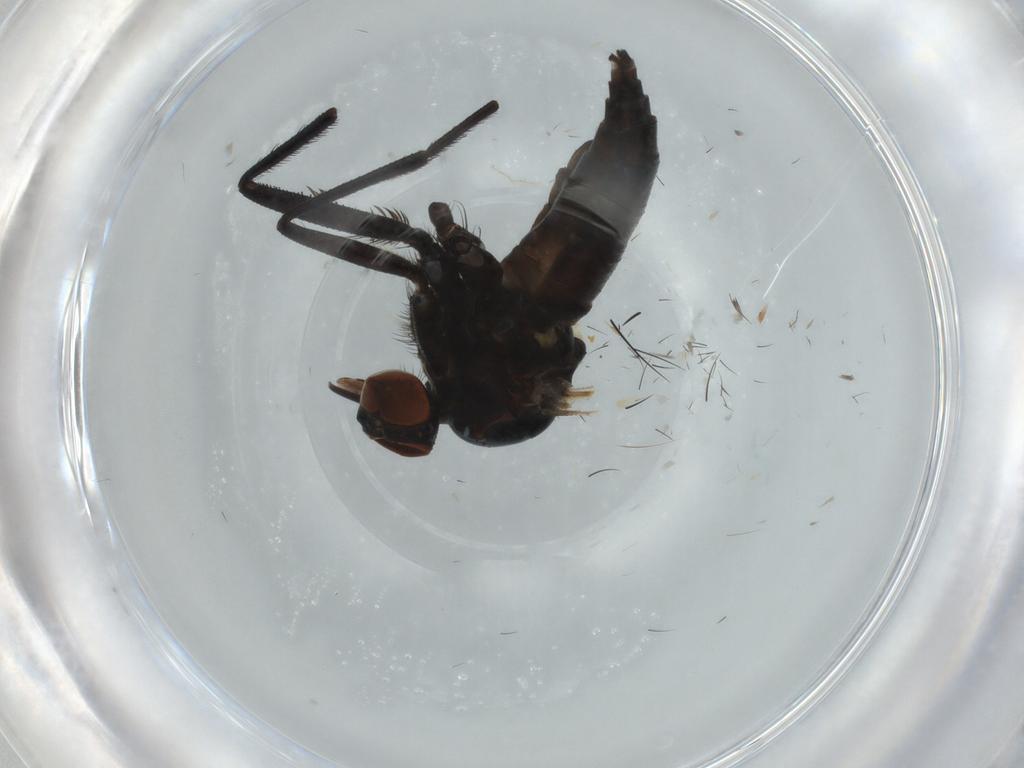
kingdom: Animalia
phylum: Arthropoda
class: Insecta
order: Diptera
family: Empididae
